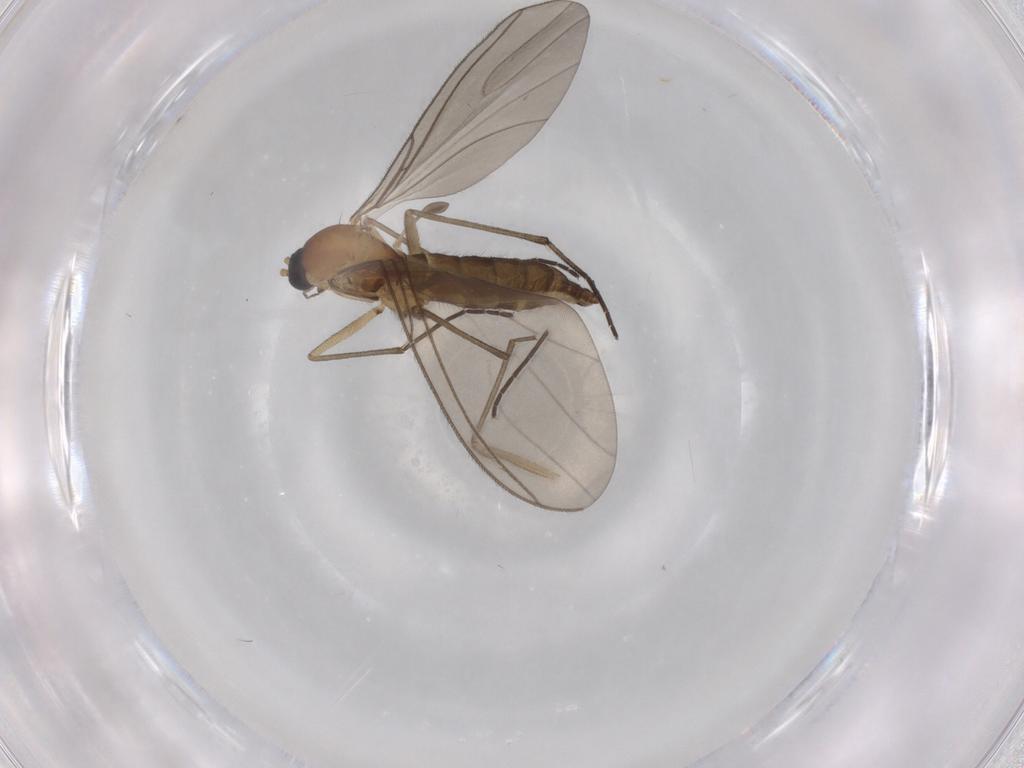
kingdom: Animalia
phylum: Arthropoda
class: Insecta
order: Diptera
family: Sciaridae
